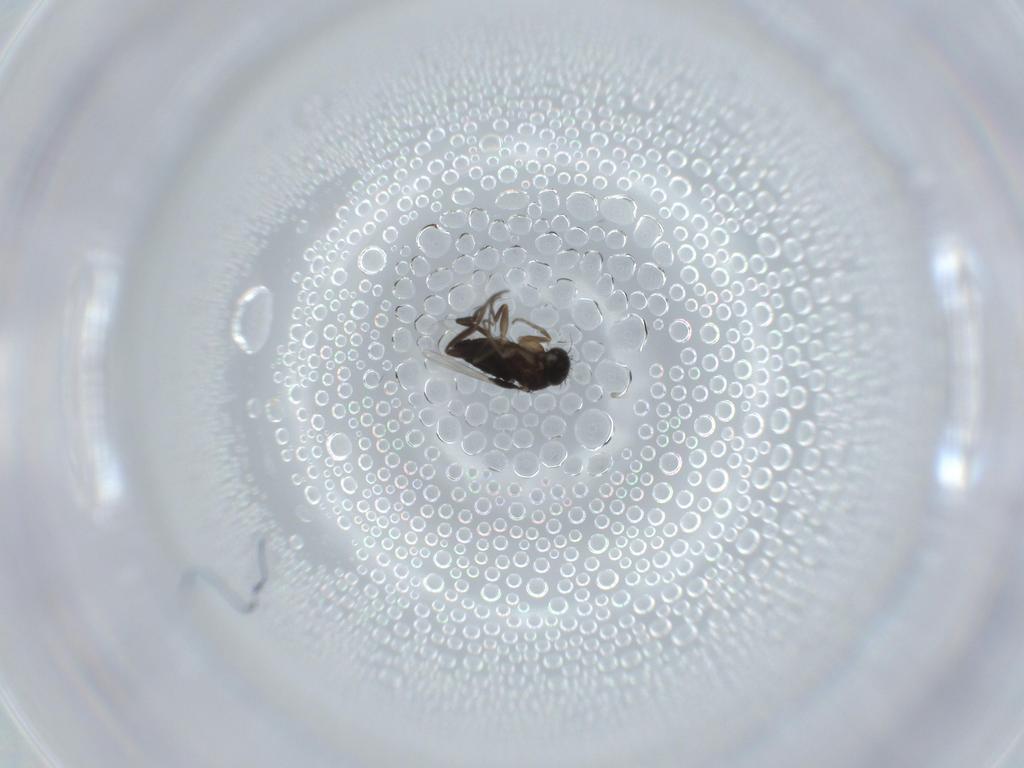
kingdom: Animalia
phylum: Arthropoda
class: Insecta
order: Diptera
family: Phoridae
